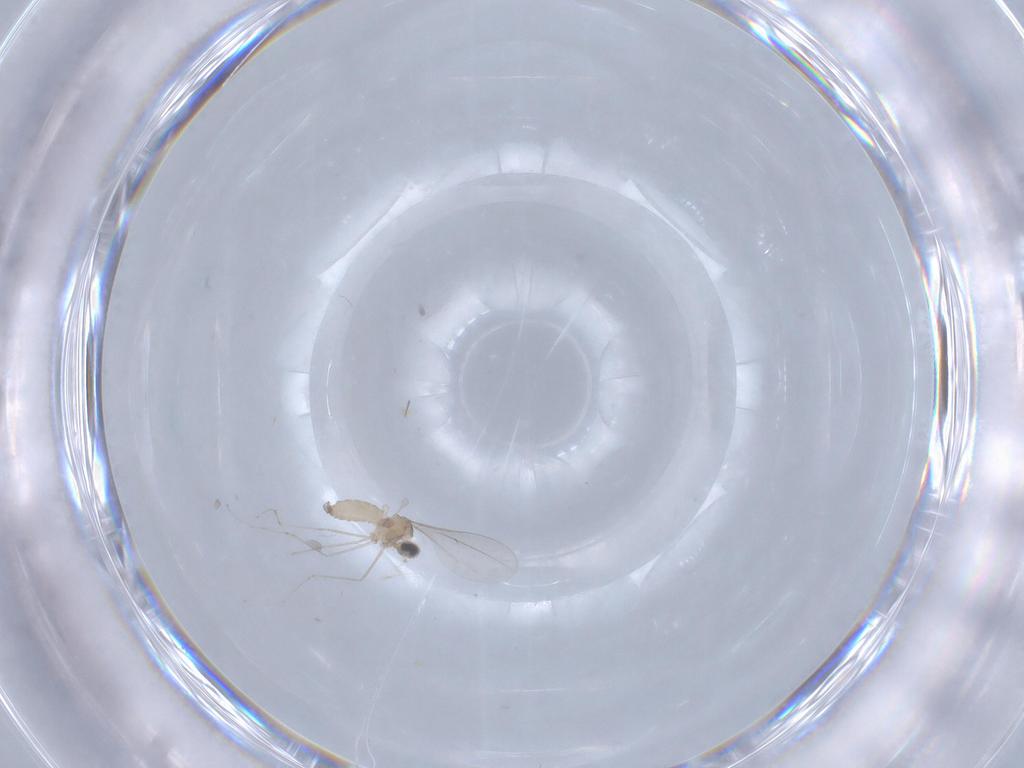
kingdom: Animalia
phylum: Arthropoda
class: Insecta
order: Diptera
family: Cecidomyiidae
